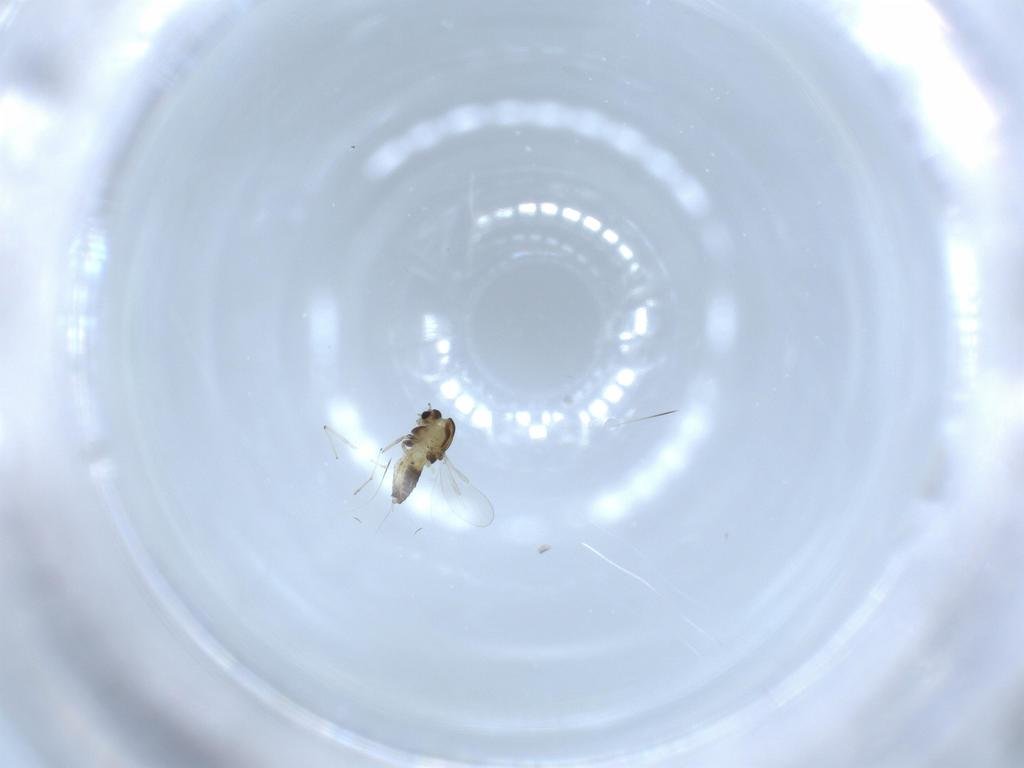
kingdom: Animalia
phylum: Arthropoda
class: Insecta
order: Diptera
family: Chironomidae
